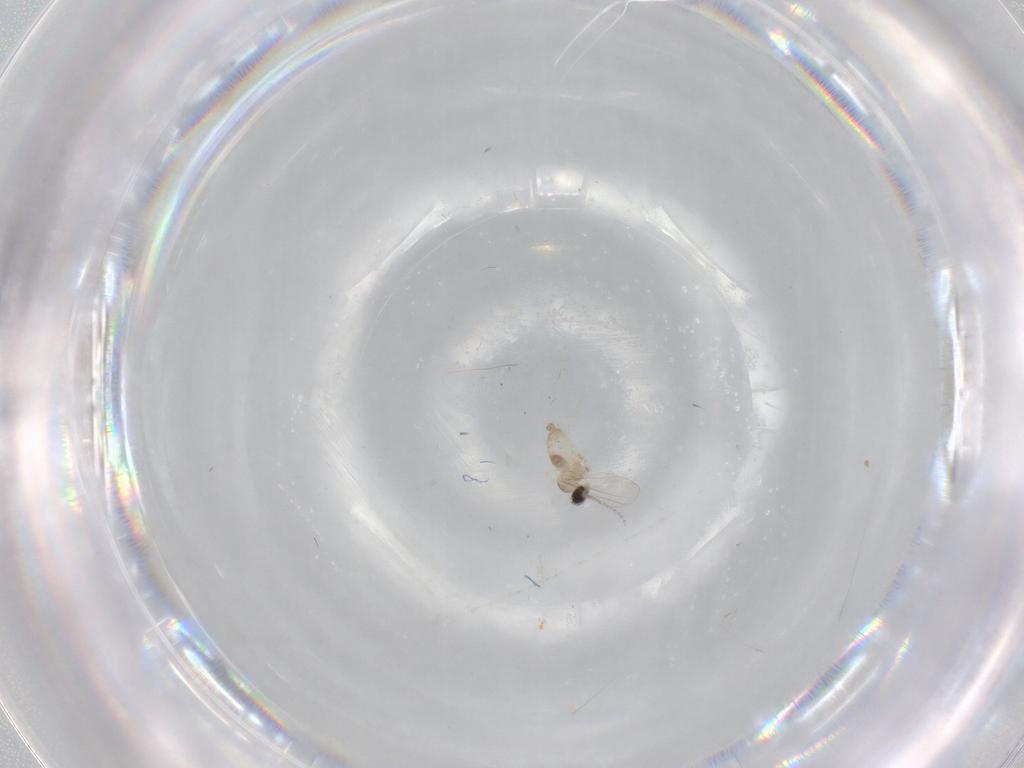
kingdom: Animalia
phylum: Arthropoda
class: Insecta
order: Diptera
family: Cecidomyiidae
